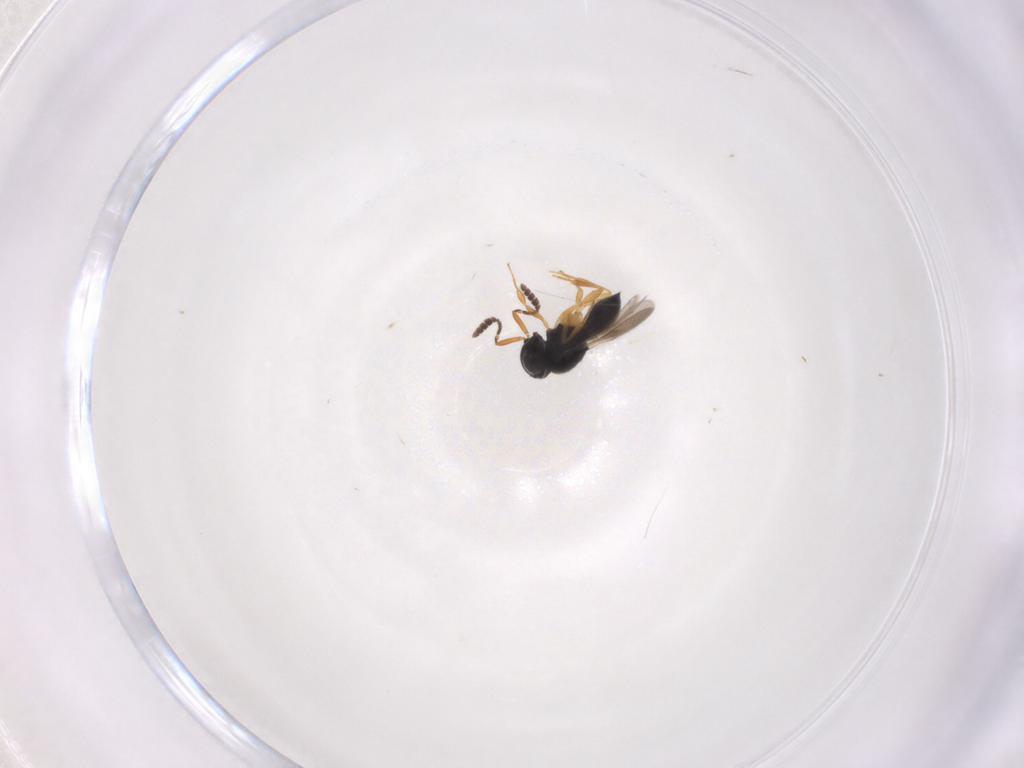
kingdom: Animalia
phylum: Arthropoda
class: Insecta
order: Hymenoptera
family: Scelionidae
